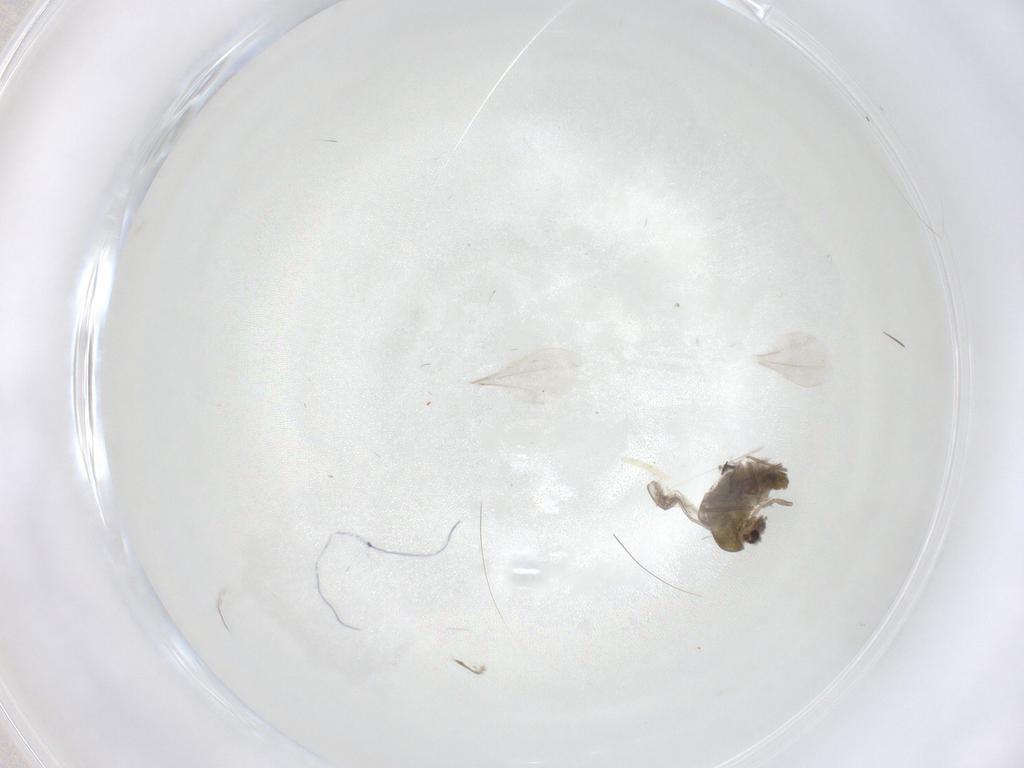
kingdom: Animalia
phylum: Arthropoda
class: Insecta
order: Diptera
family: Chironomidae
